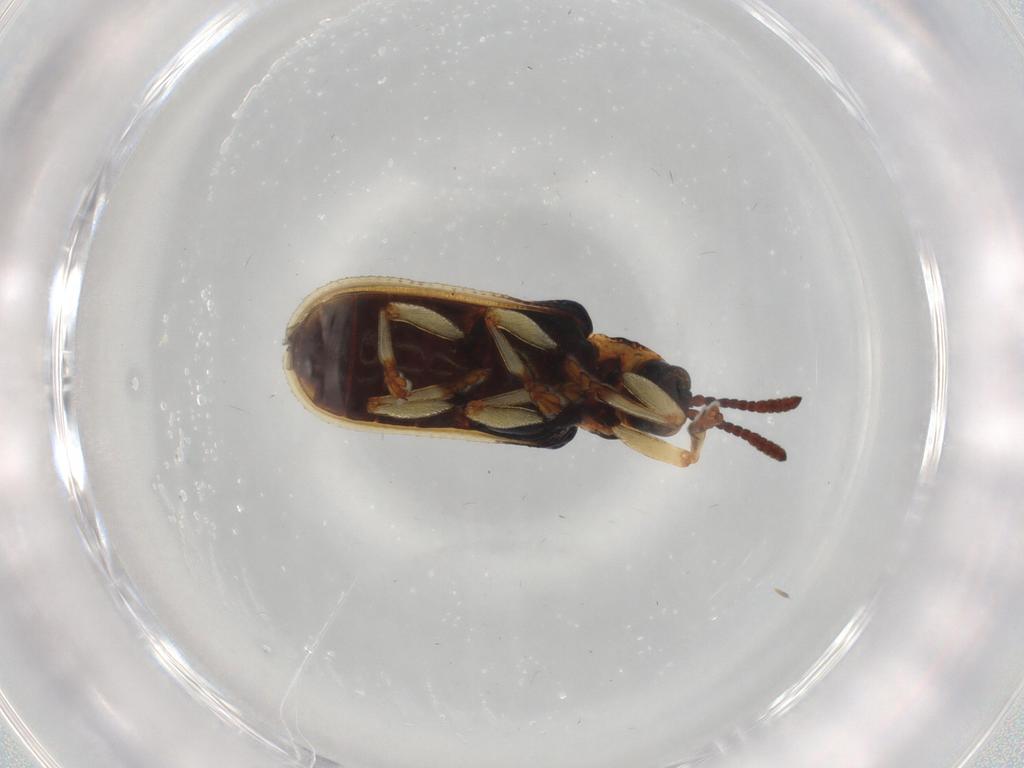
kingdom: Animalia
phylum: Arthropoda
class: Insecta
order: Coleoptera
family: Chrysomelidae
